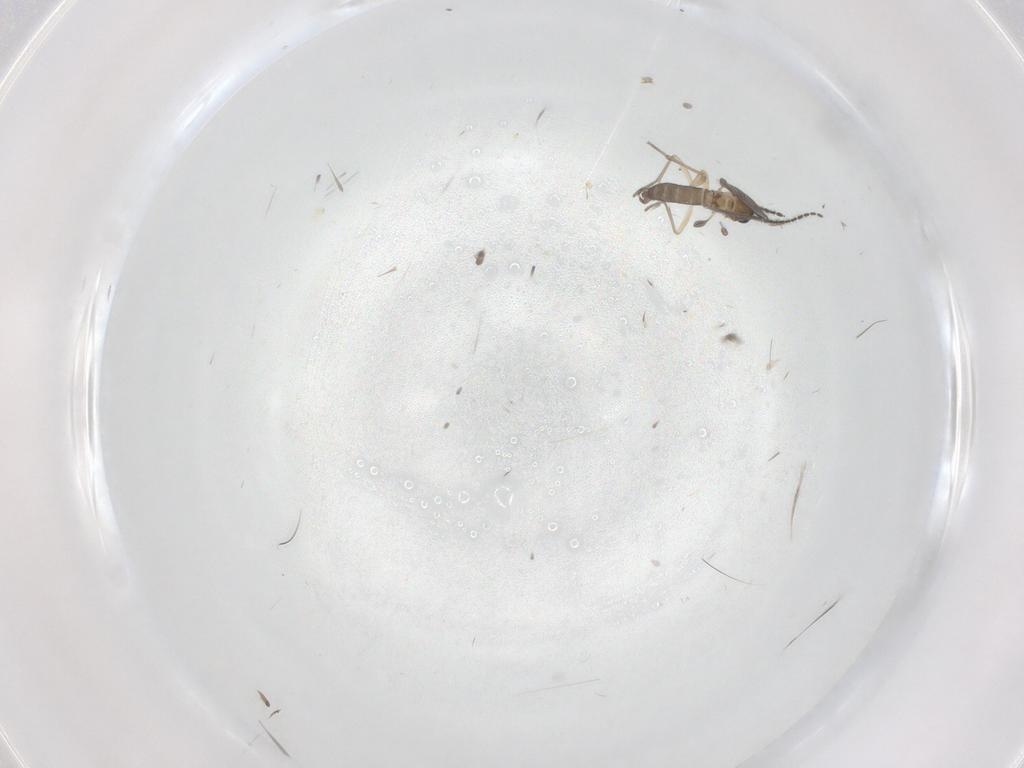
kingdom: Animalia
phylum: Arthropoda
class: Insecta
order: Diptera
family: Sciaridae
